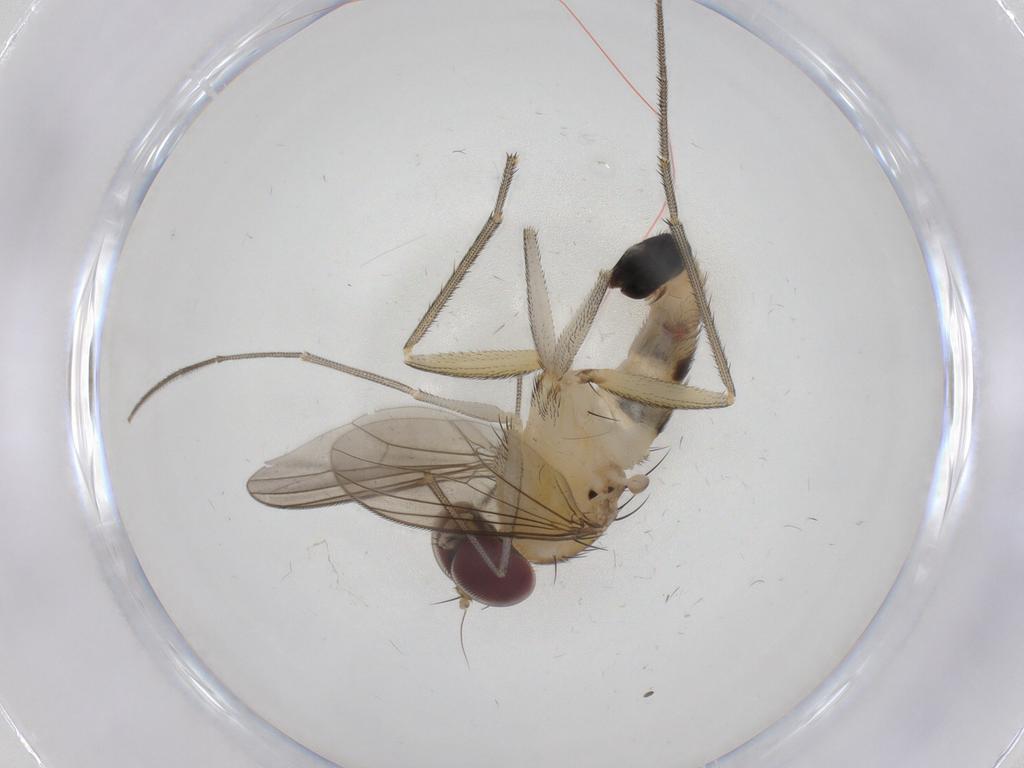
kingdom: Animalia
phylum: Arthropoda
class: Insecta
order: Diptera
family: Dolichopodidae
